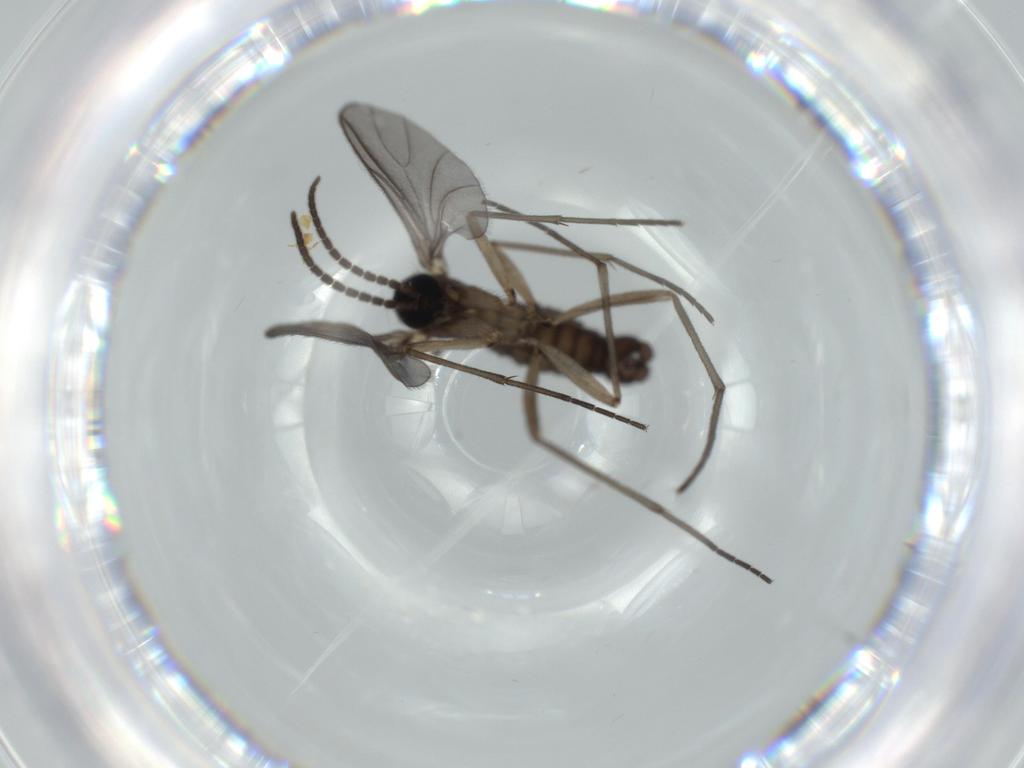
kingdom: Animalia
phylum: Arthropoda
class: Insecta
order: Diptera
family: Sciaridae
